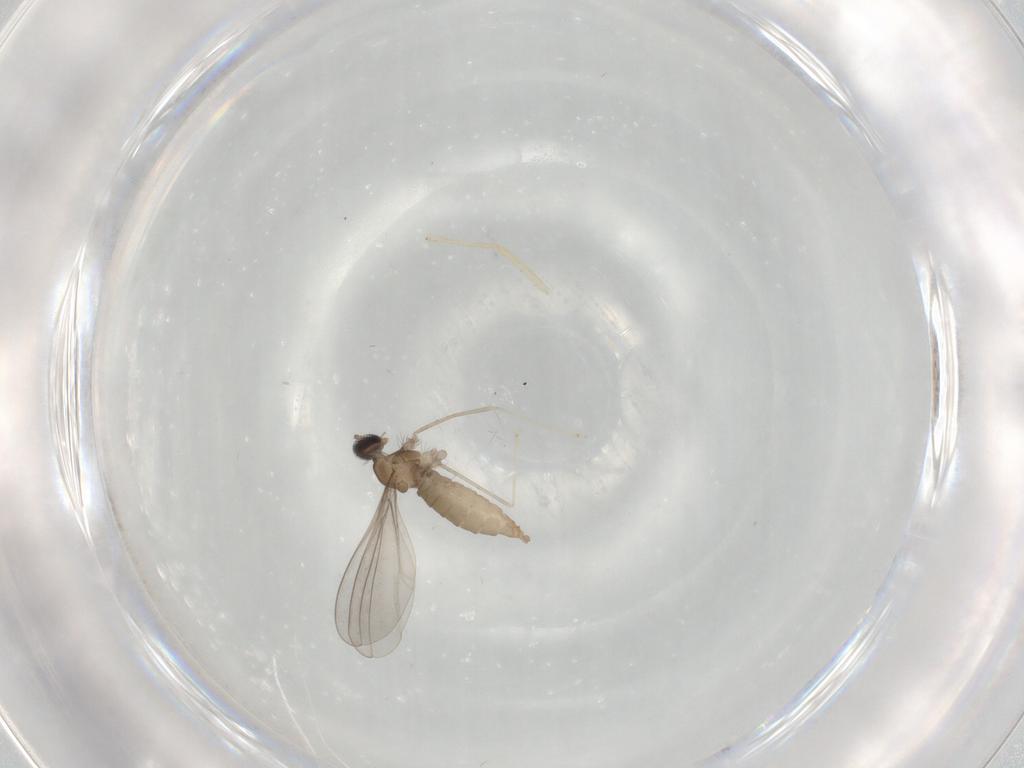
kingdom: Animalia
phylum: Arthropoda
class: Insecta
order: Diptera
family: Cecidomyiidae
